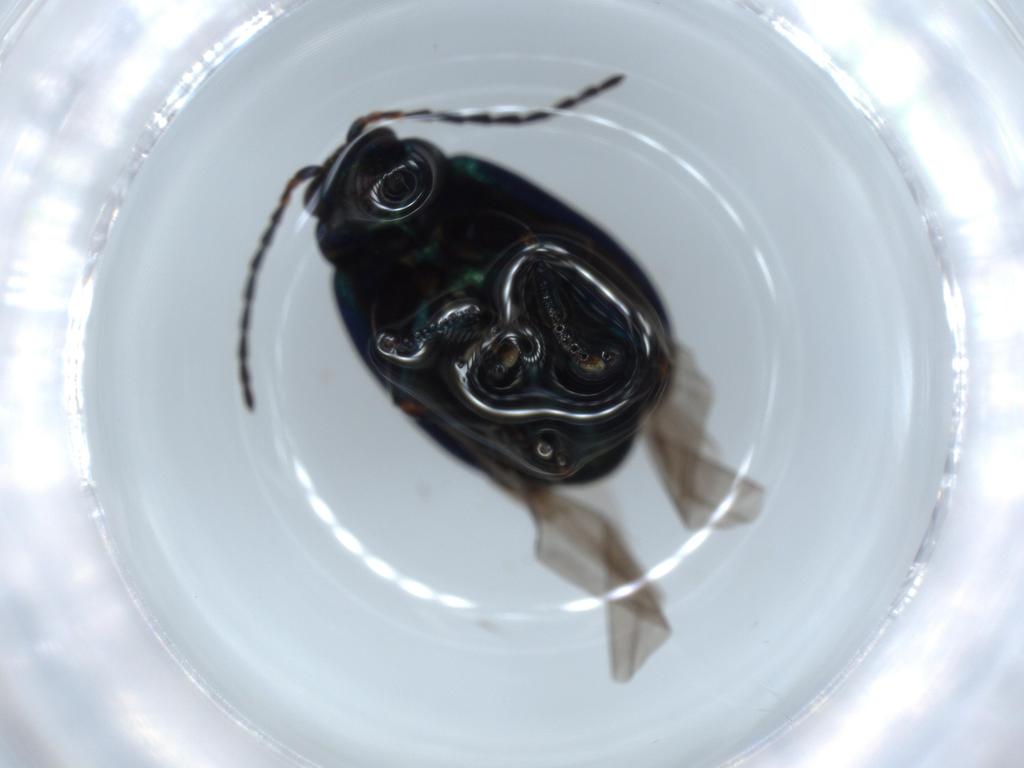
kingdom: Animalia
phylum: Arthropoda
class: Insecta
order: Coleoptera
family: Chrysomelidae
